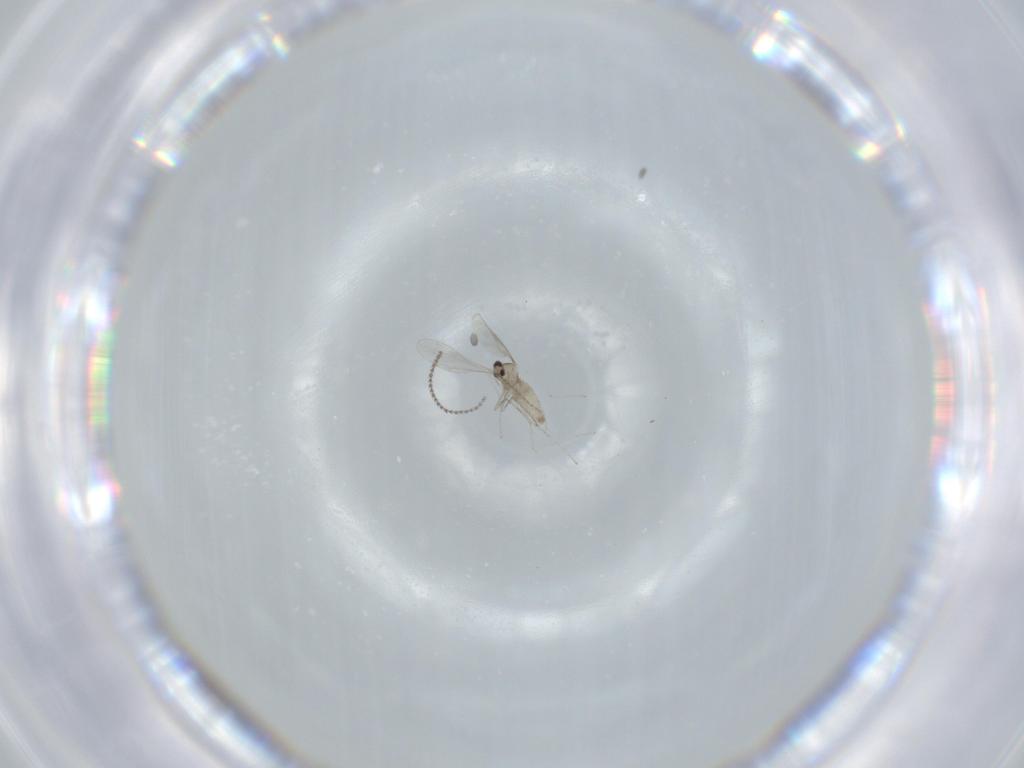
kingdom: Animalia
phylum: Arthropoda
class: Insecta
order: Diptera
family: Cecidomyiidae
